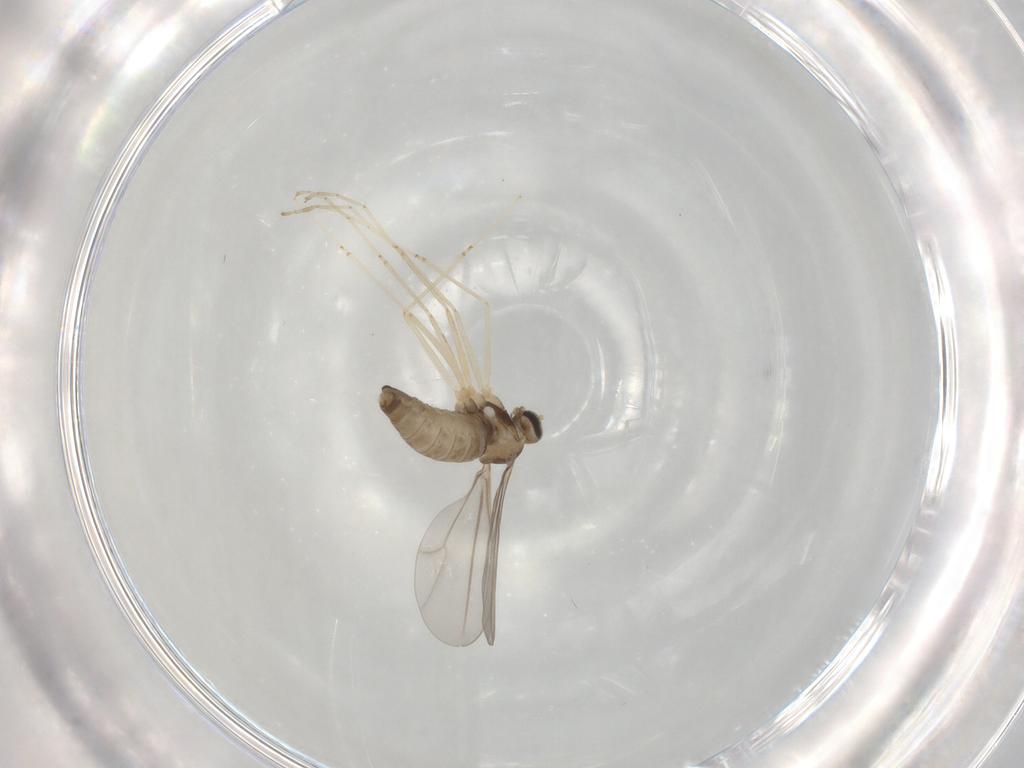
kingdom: Animalia
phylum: Arthropoda
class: Insecta
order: Diptera
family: Cecidomyiidae
